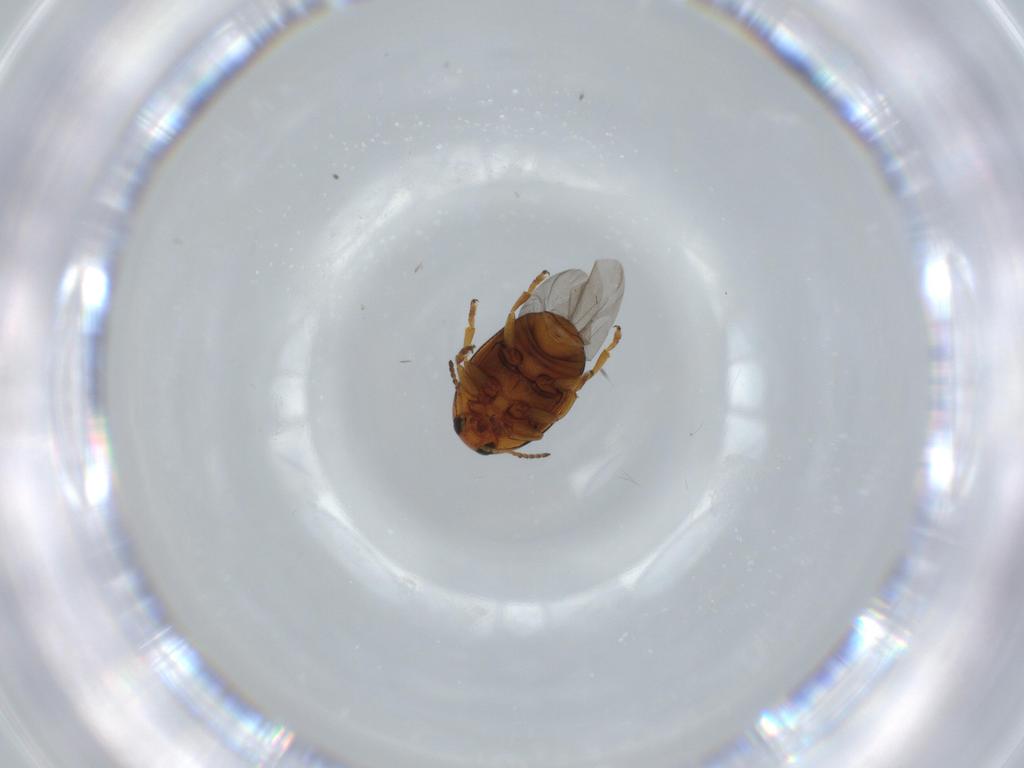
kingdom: Animalia
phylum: Arthropoda
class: Insecta
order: Coleoptera
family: Chrysomelidae
